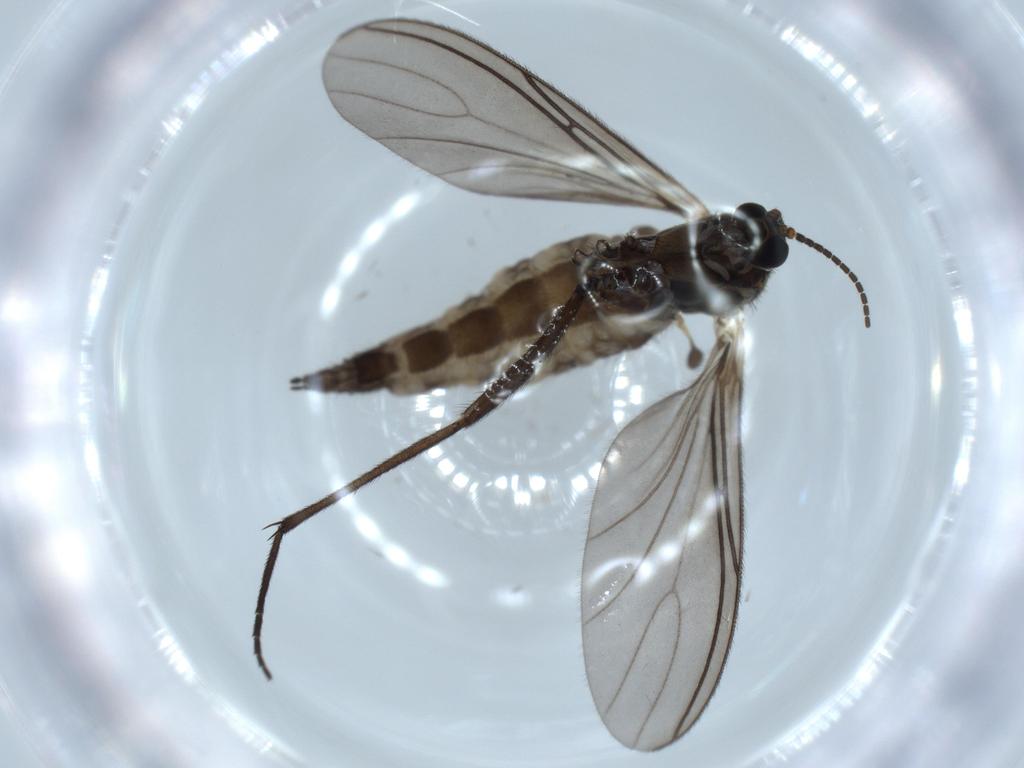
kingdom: Animalia
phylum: Arthropoda
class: Insecta
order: Diptera
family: Sciaridae
